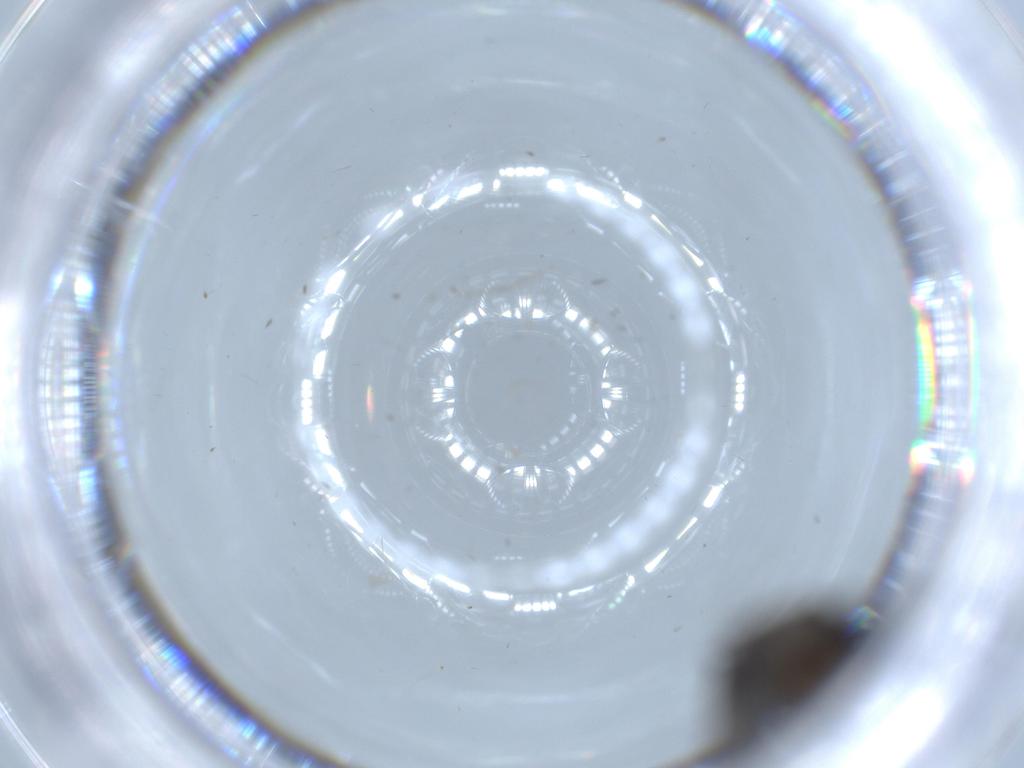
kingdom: Animalia
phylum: Arthropoda
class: Insecta
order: Diptera
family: Sciaridae
